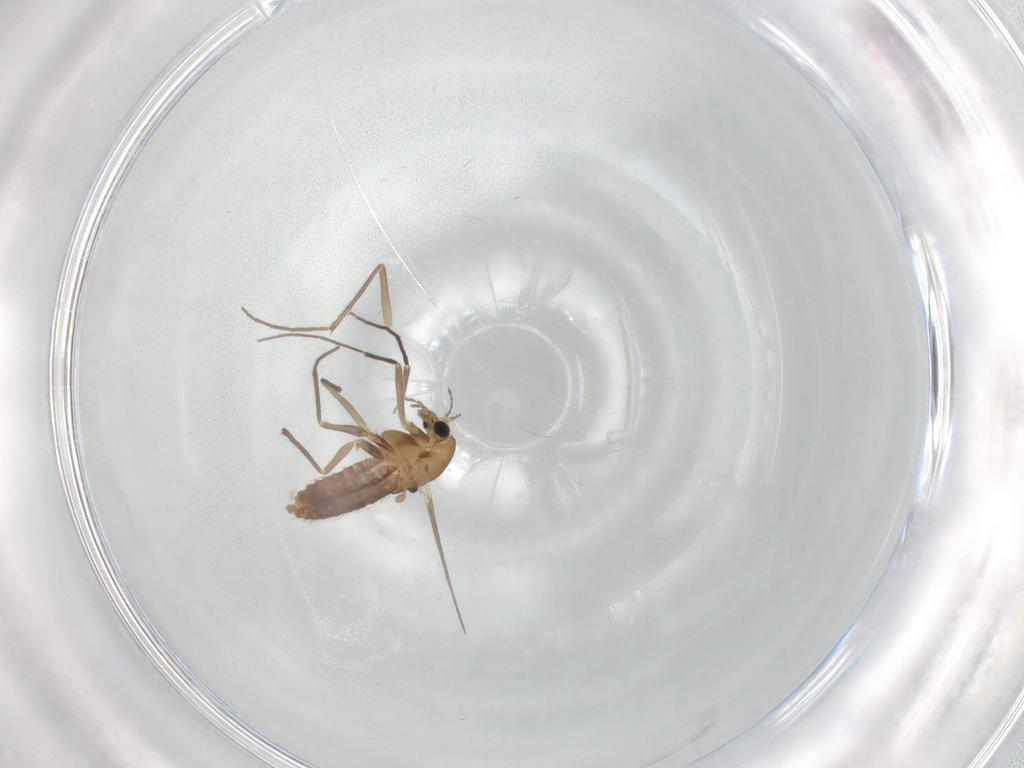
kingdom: Animalia
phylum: Arthropoda
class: Insecta
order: Diptera
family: Chironomidae
